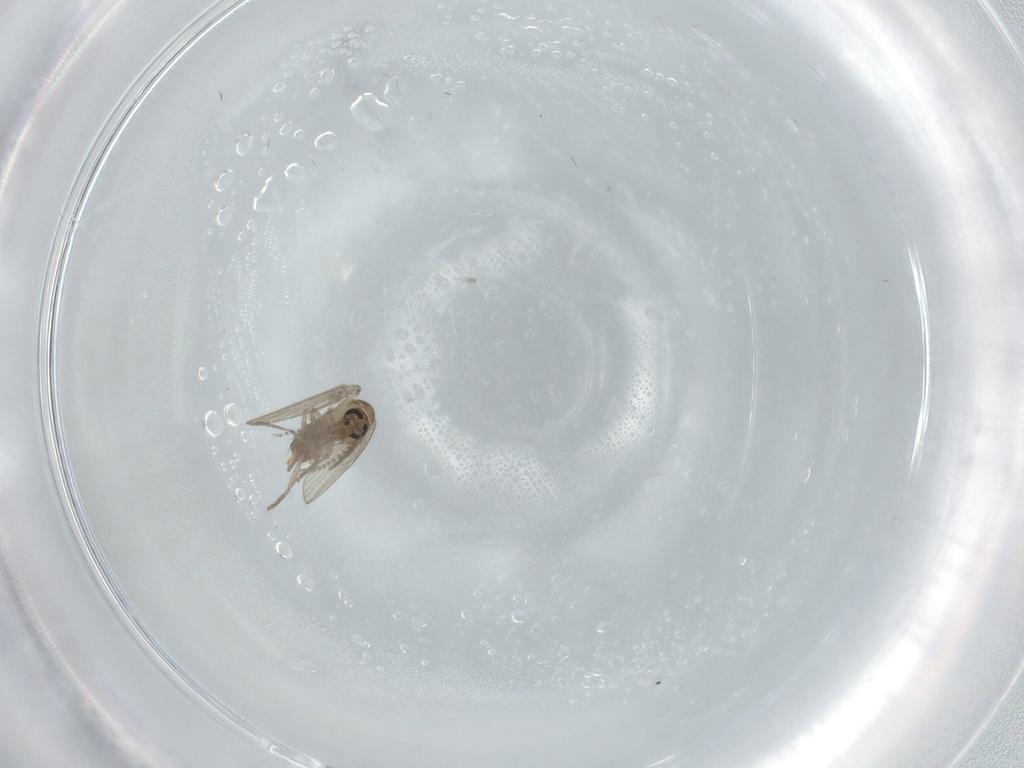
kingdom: Animalia
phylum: Arthropoda
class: Insecta
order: Diptera
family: Psychodidae
